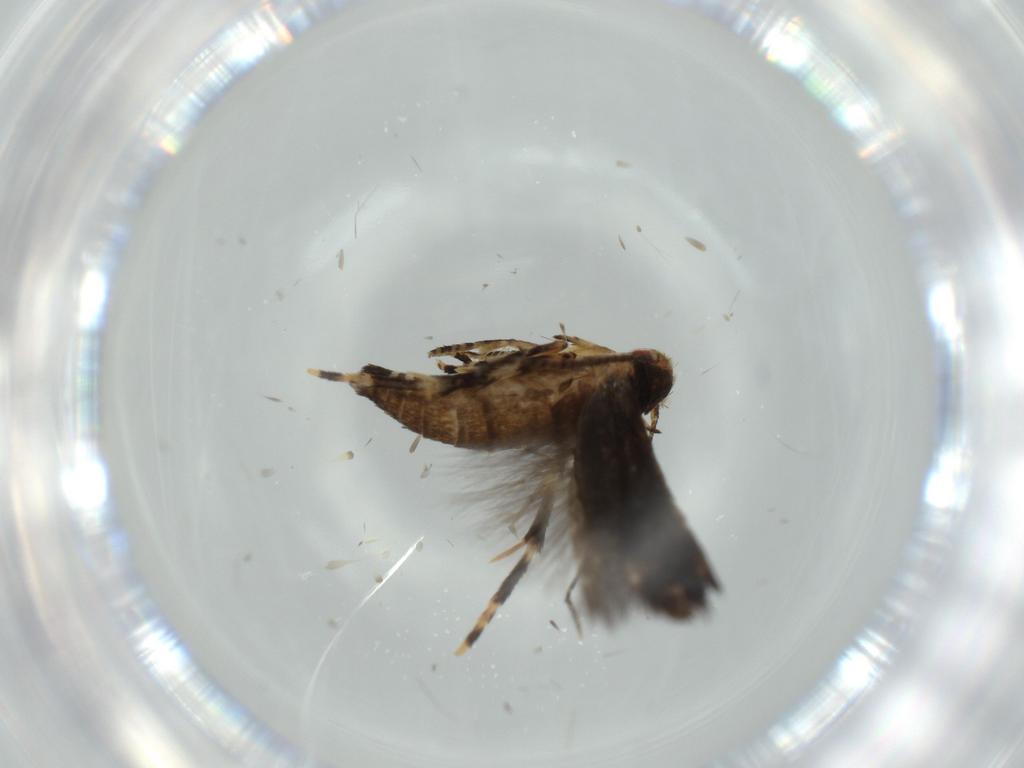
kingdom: Animalia
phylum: Arthropoda
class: Insecta
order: Lepidoptera
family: Momphidae
